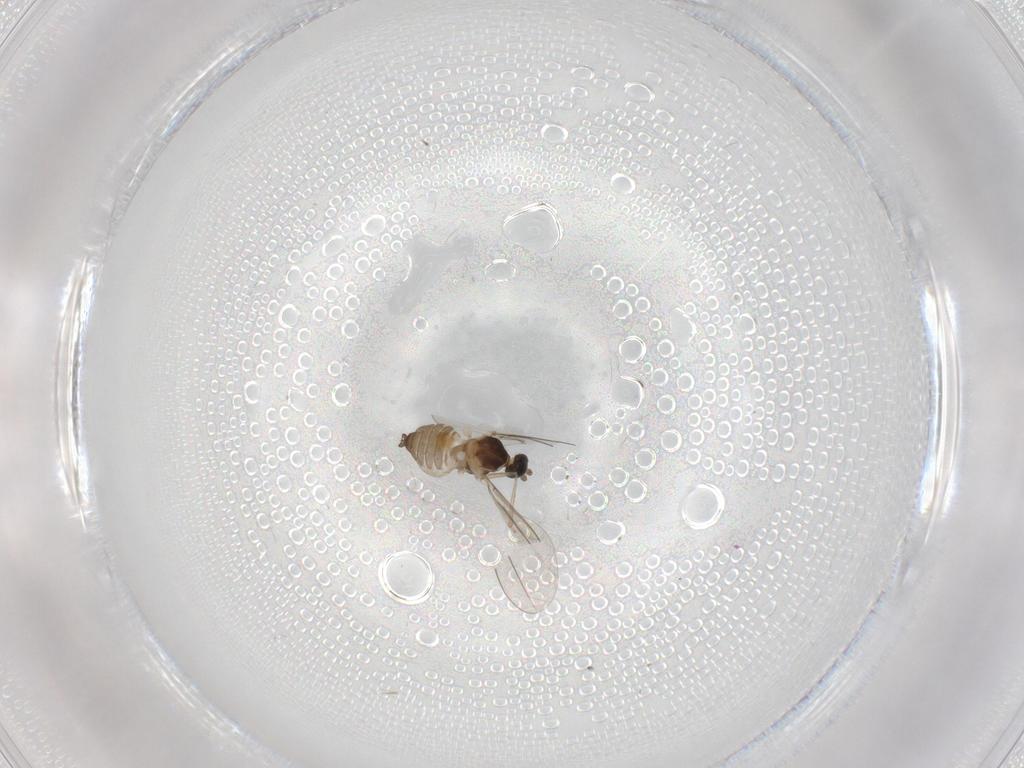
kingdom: Animalia
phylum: Arthropoda
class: Insecta
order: Diptera
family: Cecidomyiidae
